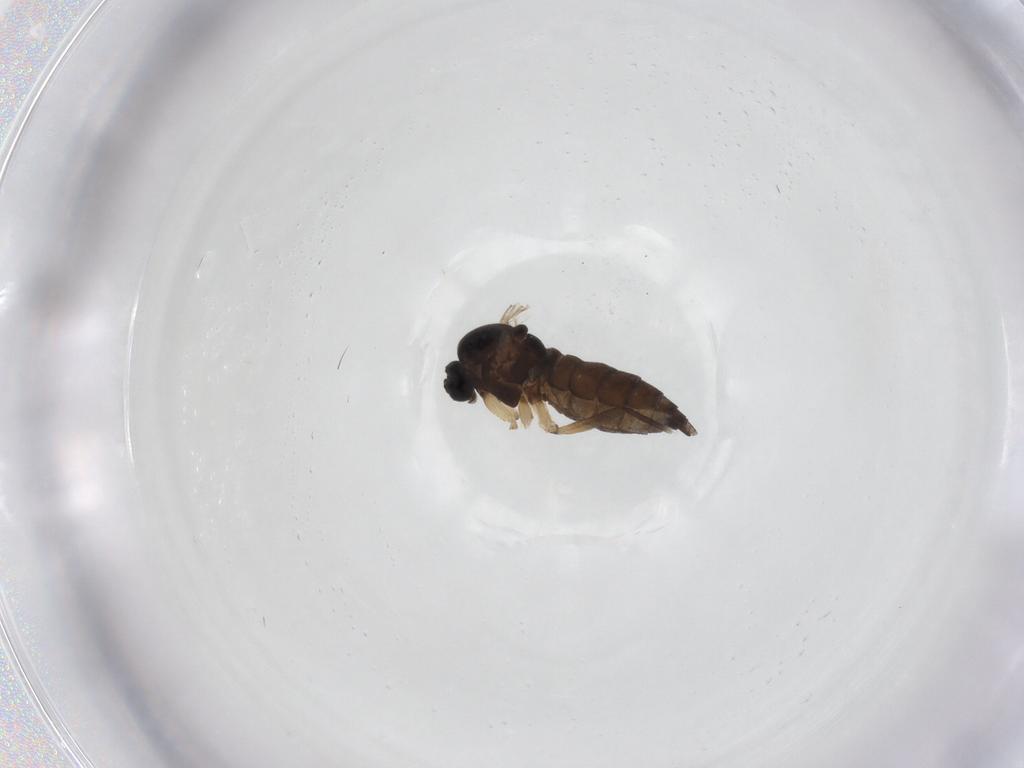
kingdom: Animalia
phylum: Arthropoda
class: Insecta
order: Diptera
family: Sciaridae
